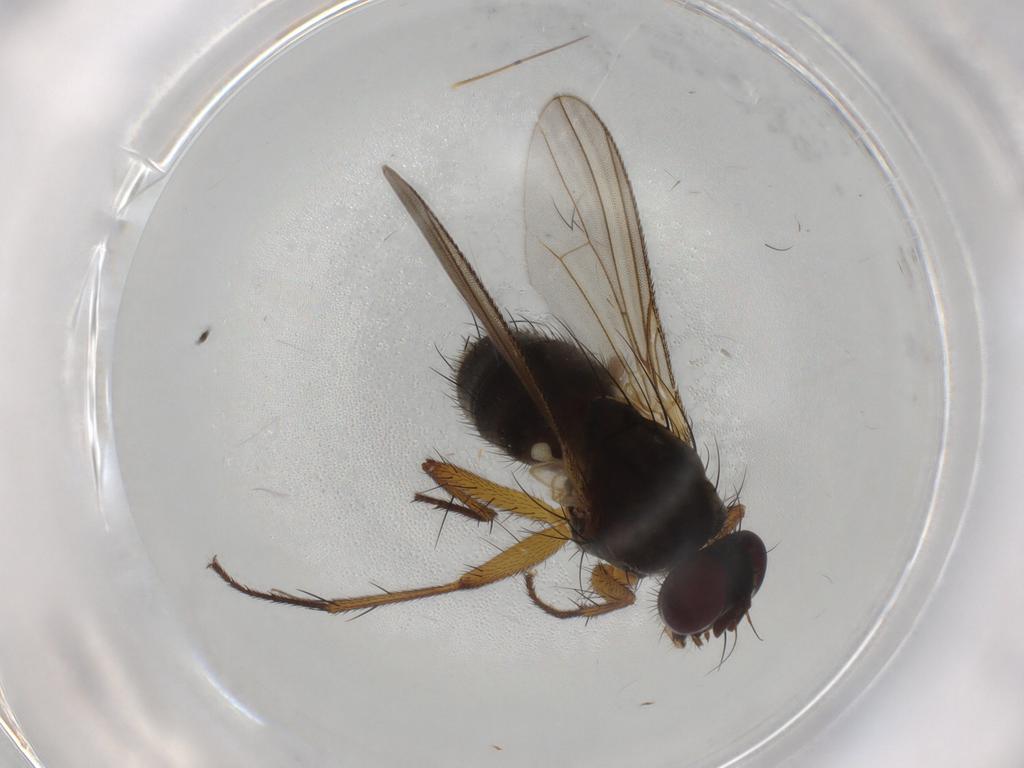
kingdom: Animalia
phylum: Arthropoda
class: Insecta
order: Diptera
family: Muscidae
